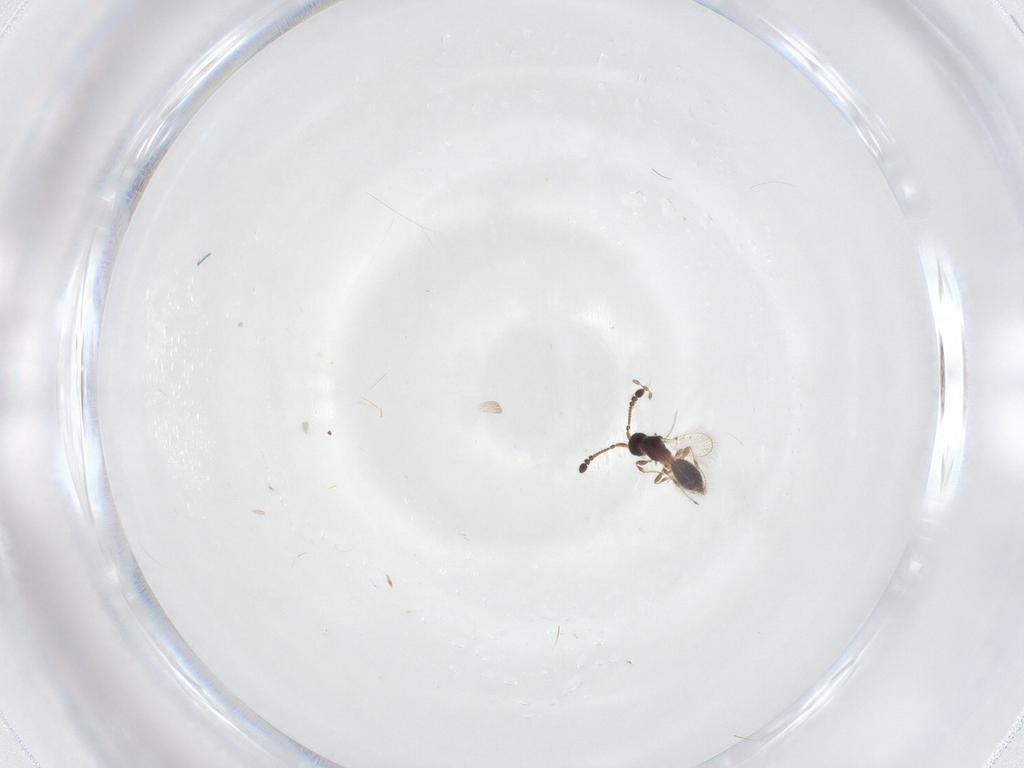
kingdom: Animalia
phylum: Arthropoda
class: Insecta
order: Hymenoptera
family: Diapriidae
